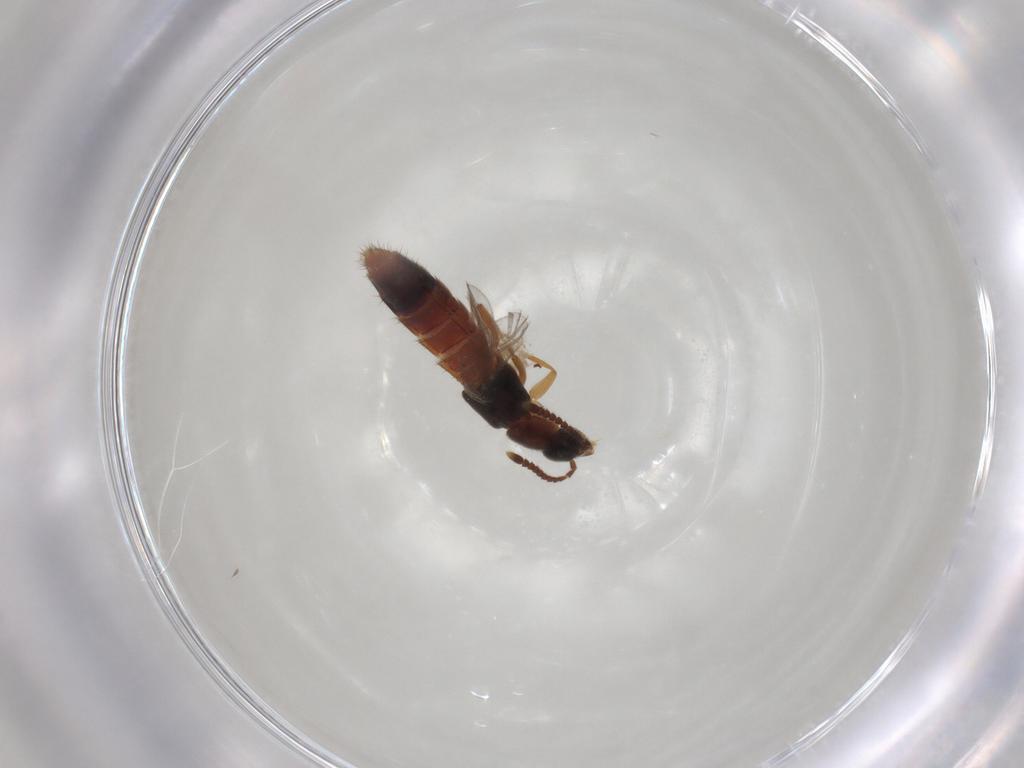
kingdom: Animalia
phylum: Arthropoda
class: Insecta
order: Coleoptera
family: Staphylinidae
